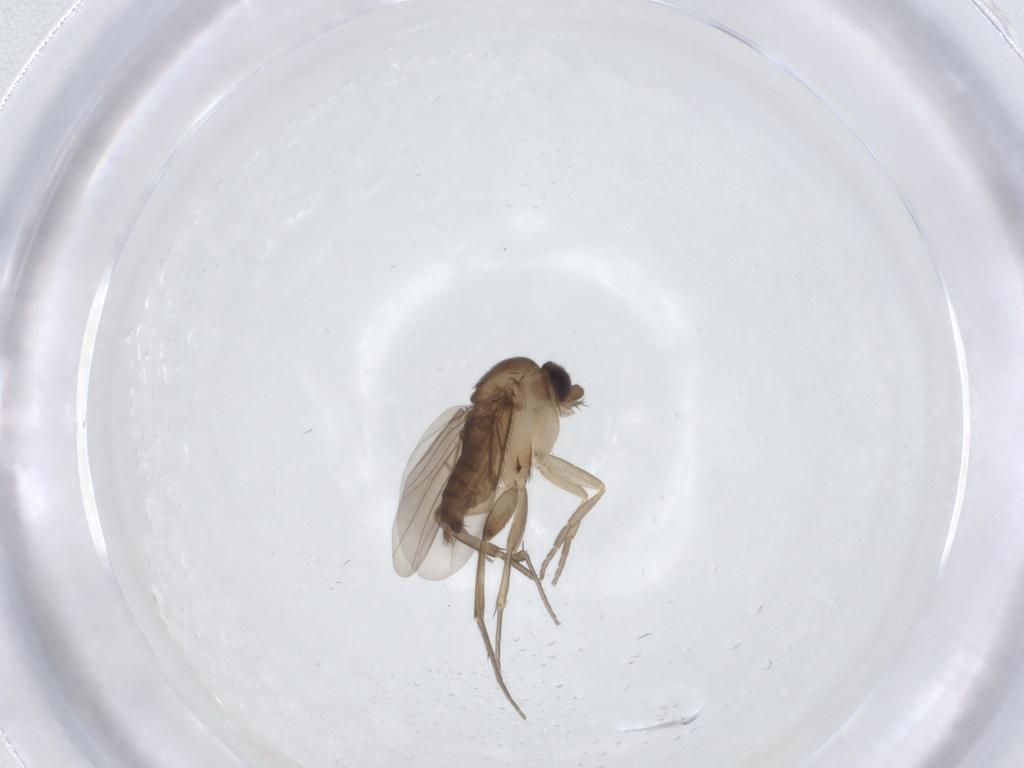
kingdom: Animalia
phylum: Arthropoda
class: Insecta
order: Diptera
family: Phoridae
